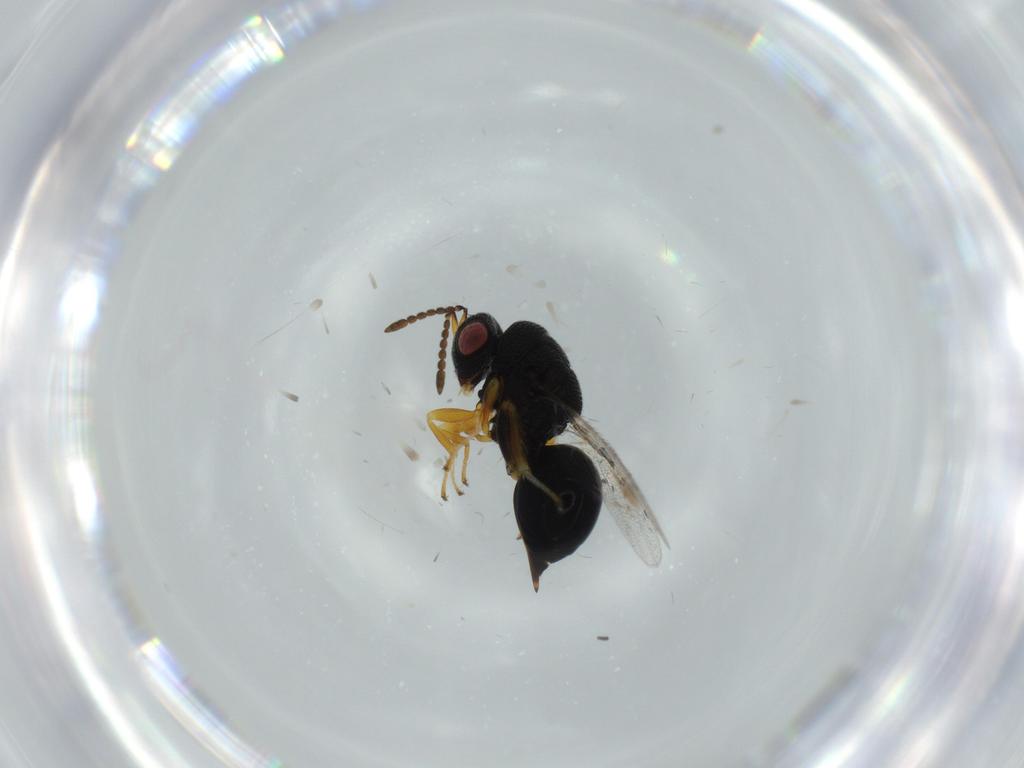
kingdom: Animalia
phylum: Arthropoda
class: Insecta
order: Hymenoptera
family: Eurytomidae
